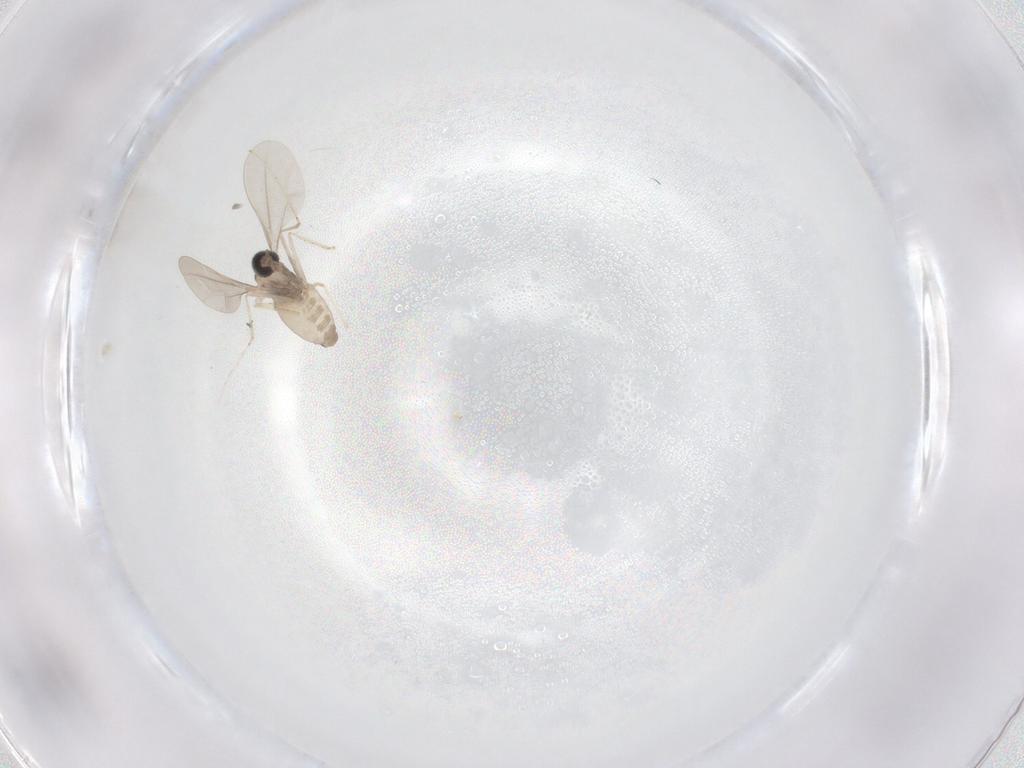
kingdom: Animalia
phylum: Arthropoda
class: Insecta
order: Diptera
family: Cecidomyiidae
